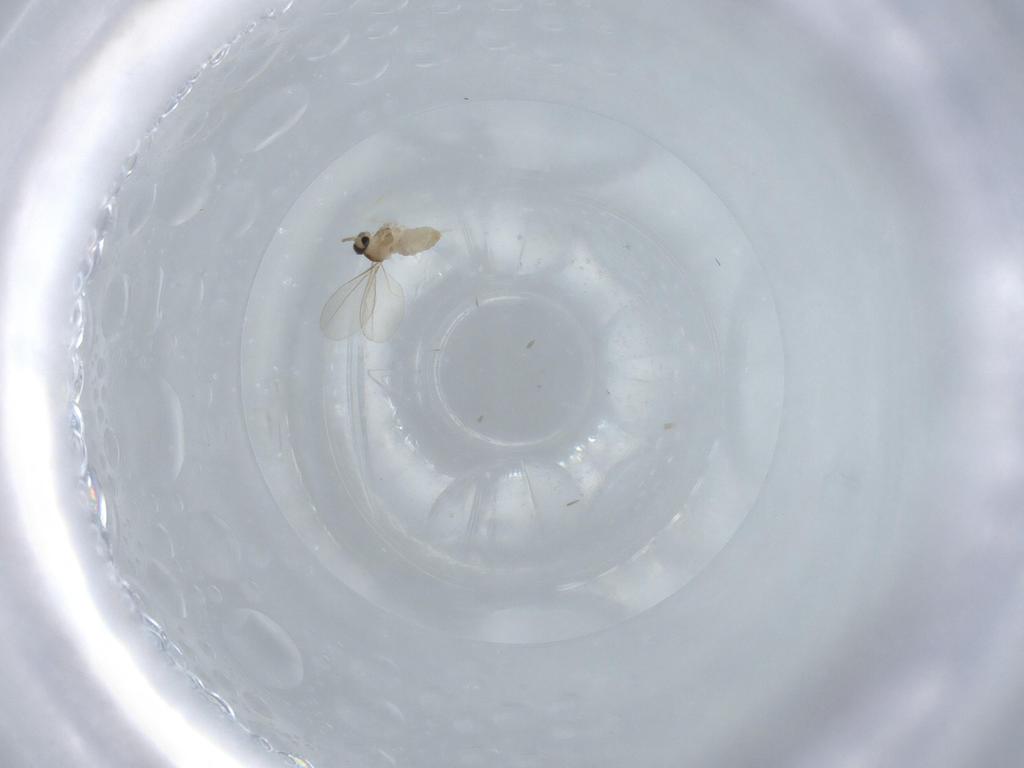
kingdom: Animalia
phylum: Arthropoda
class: Insecta
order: Diptera
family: Cecidomyiidae
